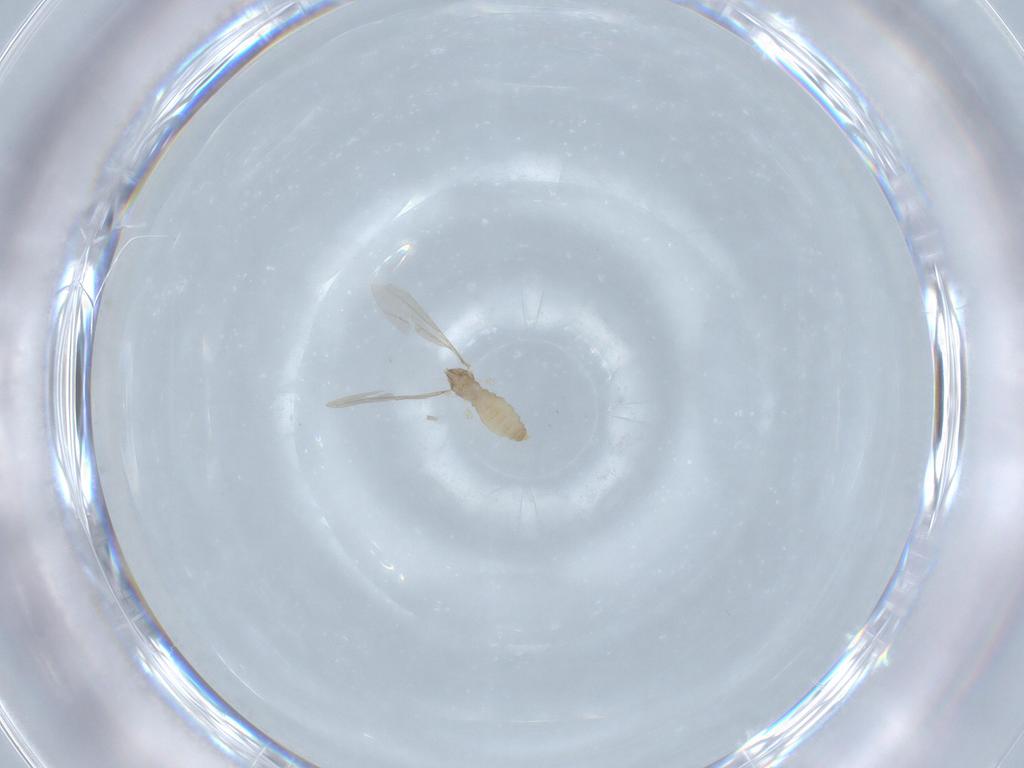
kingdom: Animalia
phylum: Arthropoda
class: Insecta
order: Diptera
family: Cecidomyiidae
